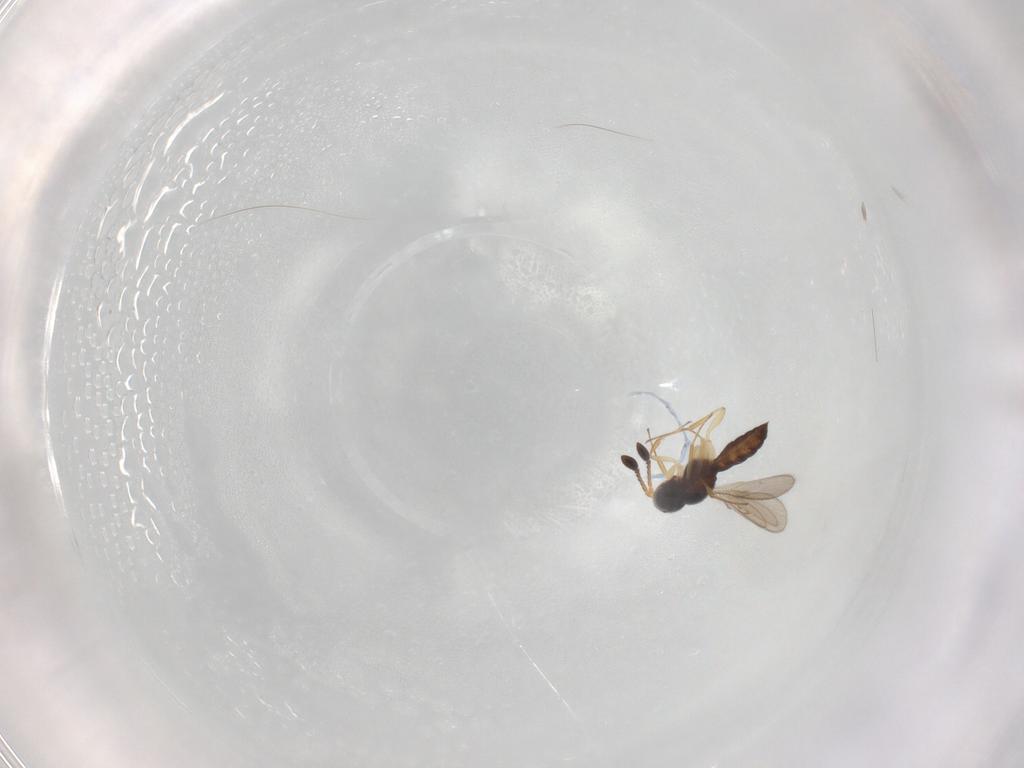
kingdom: Animalia
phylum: Arthropoda
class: Insecta
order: Hymenoptera
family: Scelionidae
